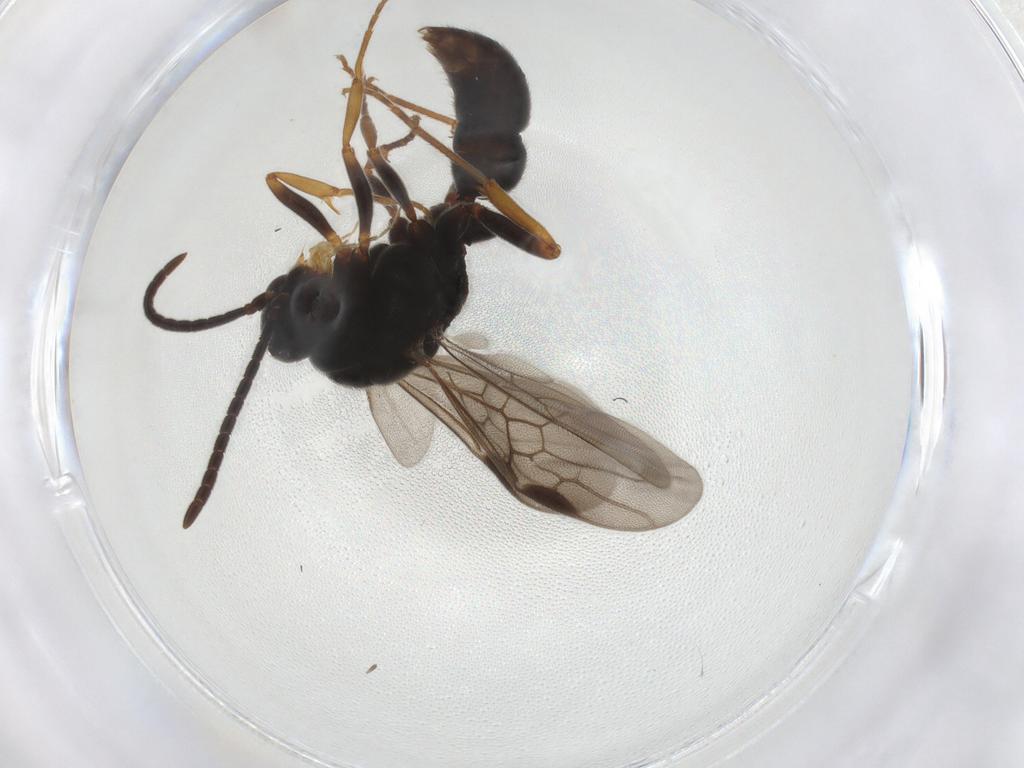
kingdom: Animalia
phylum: Arthropoda
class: Insecta
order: Hymenoptera
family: Formicidae
